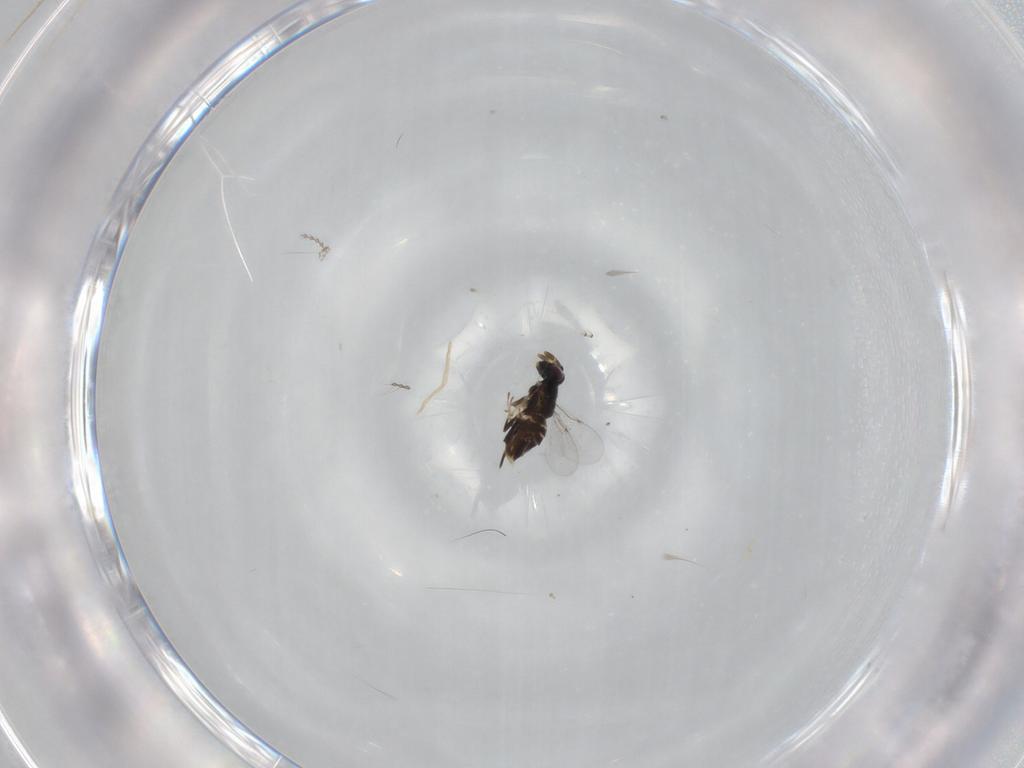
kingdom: Animalia
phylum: Arthropoda
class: Insecta
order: Hymenoptera
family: Encyrtidae
